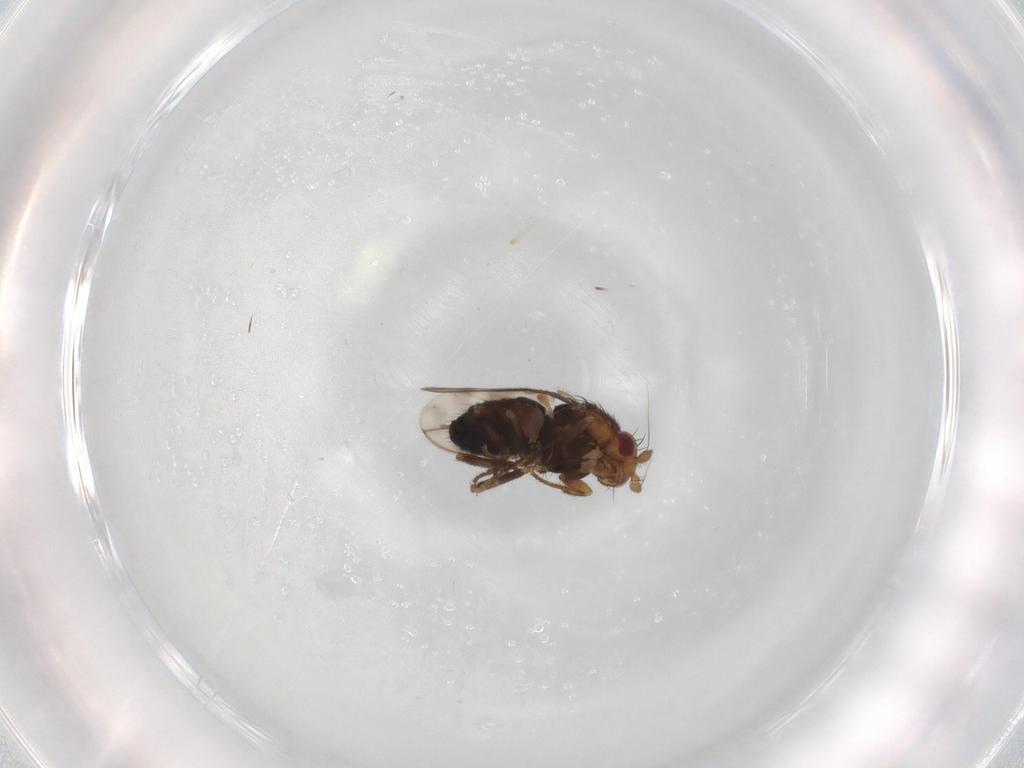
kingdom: Animalia
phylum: Arthropoda
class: Insecta
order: Diptera
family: Sphaeroceridae
